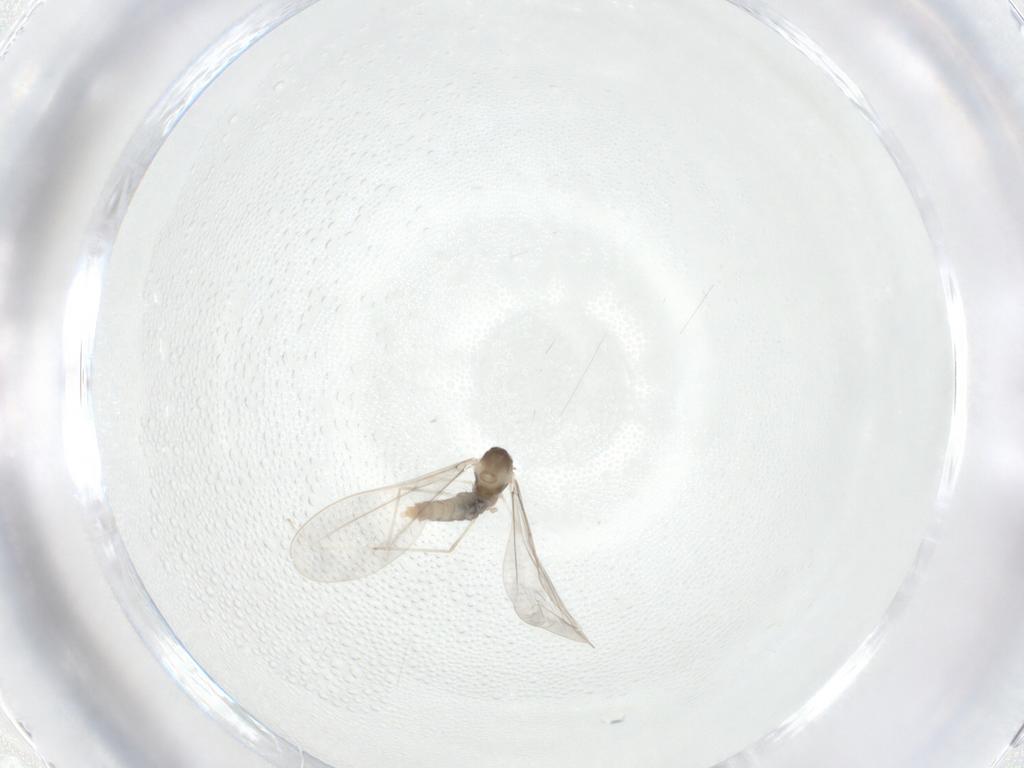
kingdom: Animalia
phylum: Arthropoda
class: Insecta
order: Diptera
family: Cecidomyiidae
